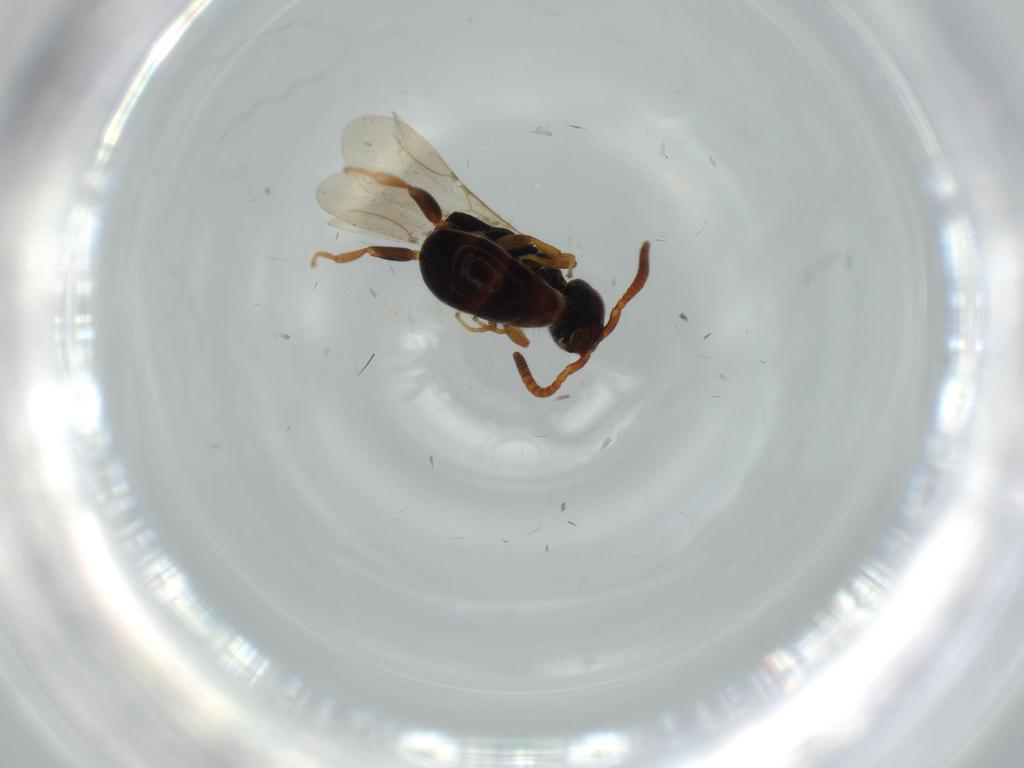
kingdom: Animalia
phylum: Arthropoda
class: Insecta
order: Hymenoptera
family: Bethylidae
